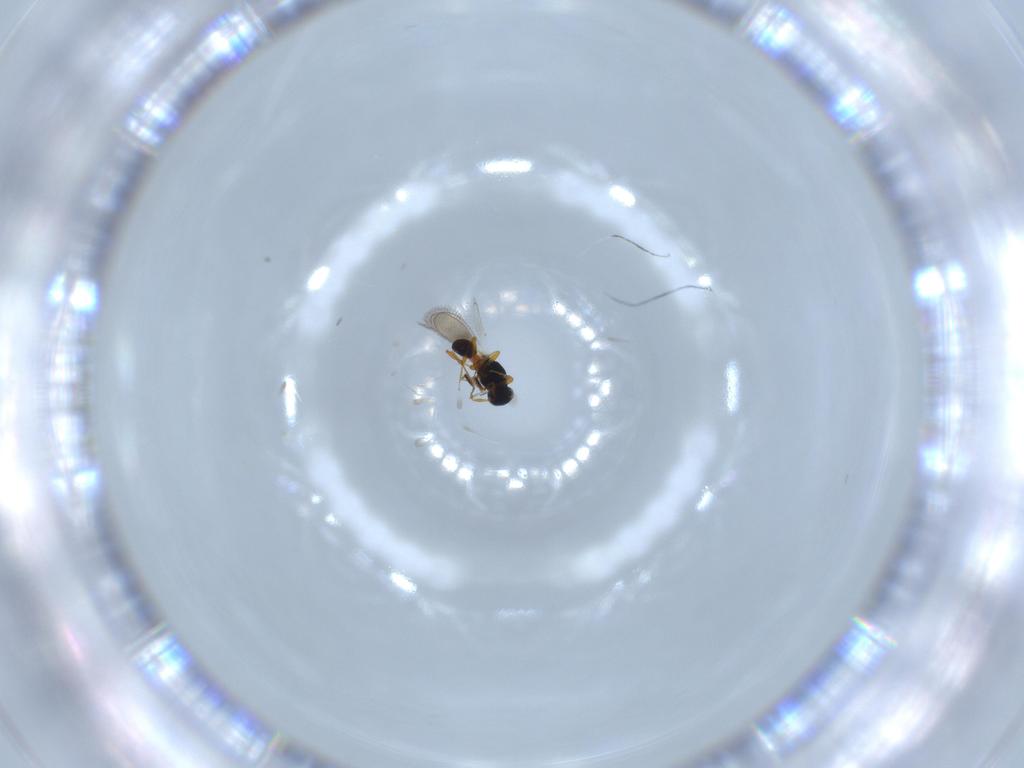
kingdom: Animalia
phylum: Arthropoda
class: Insecta
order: Hymenoptera
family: Platygastridae
